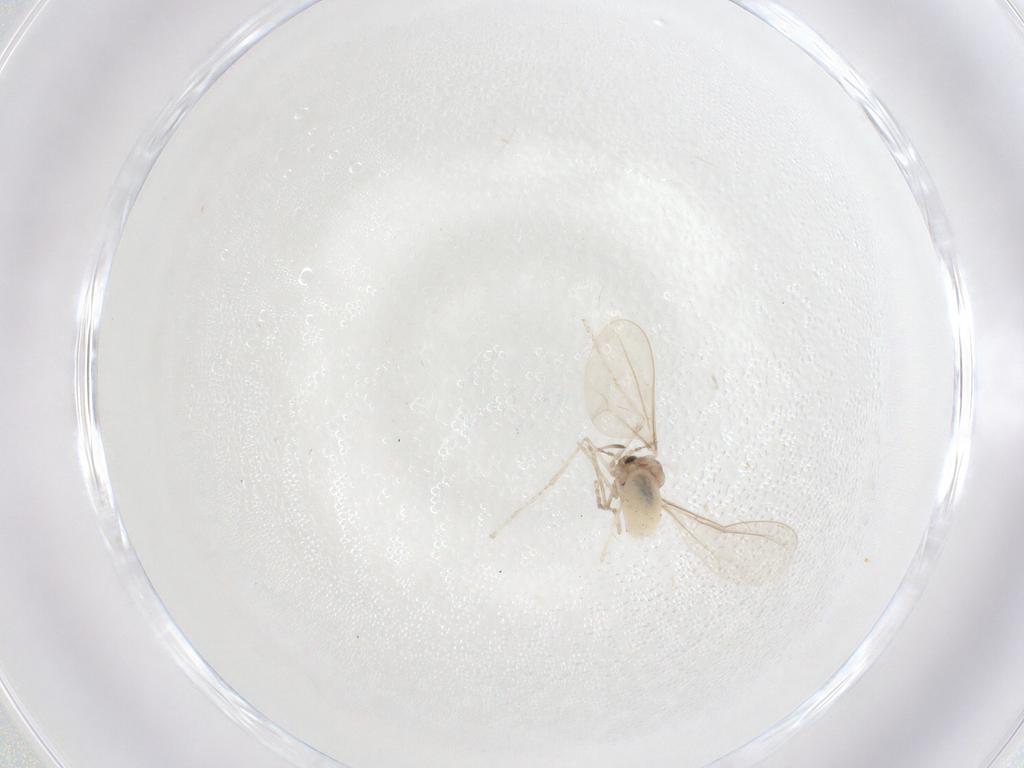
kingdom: Animalia
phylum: Arthropoda
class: Insecta
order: Diptera
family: Cecidomyiidae
